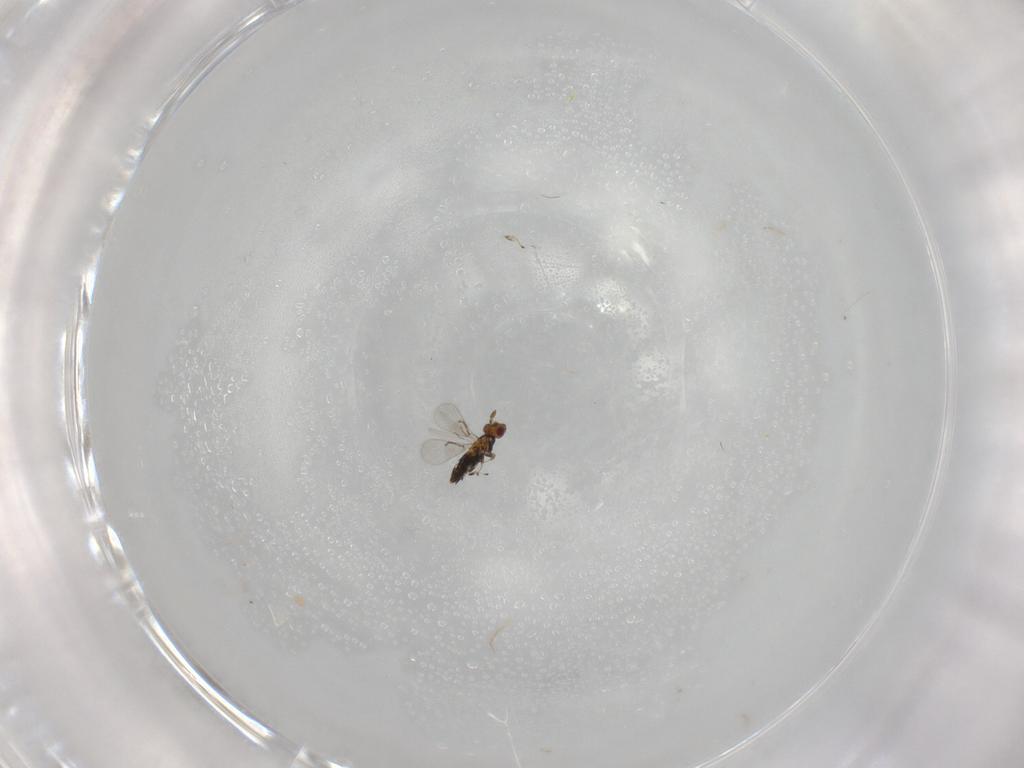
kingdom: Animalia
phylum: Arthropoda
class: Insecta
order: Hymenoptera
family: Trichogrammatidae
